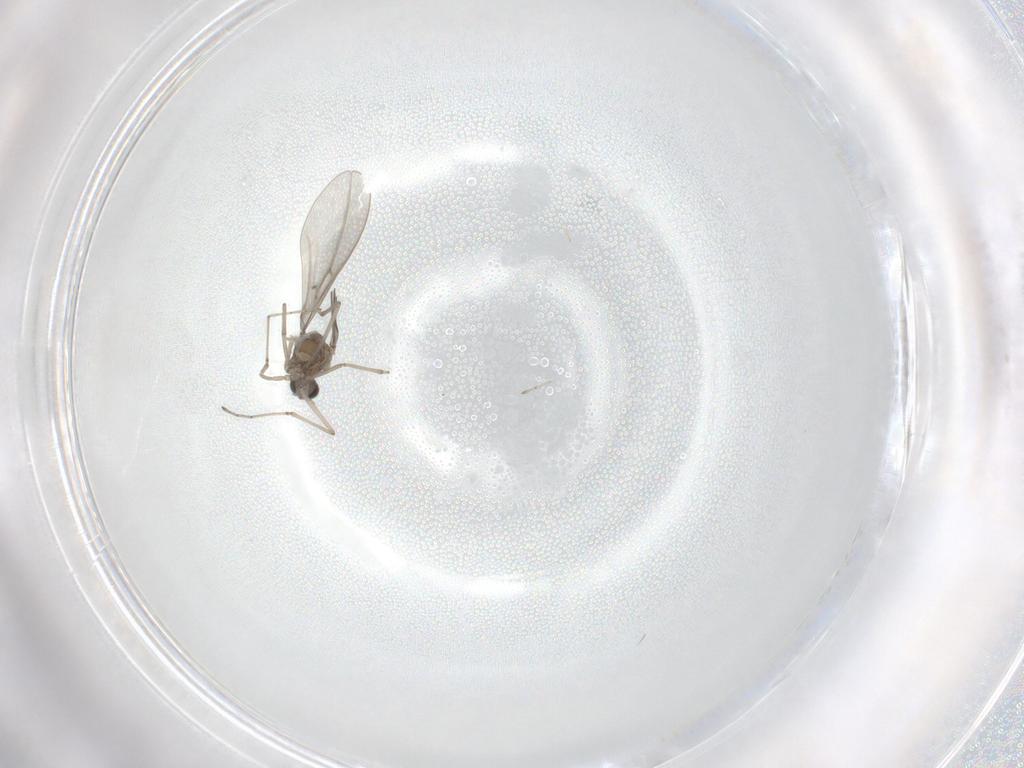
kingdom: Animalia
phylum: Arthropoda
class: Insecta
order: Diptera
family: Cecidomyiidae
